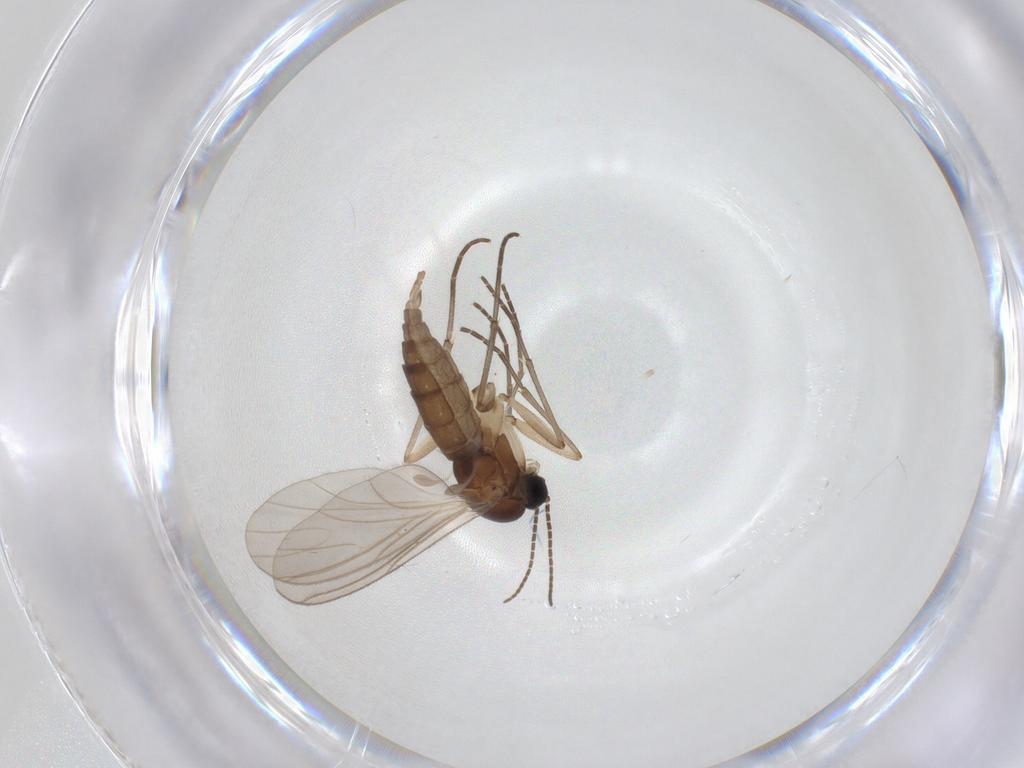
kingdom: Animalia
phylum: Arthropoda
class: Insecta
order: Diptera
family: Sciaridae
